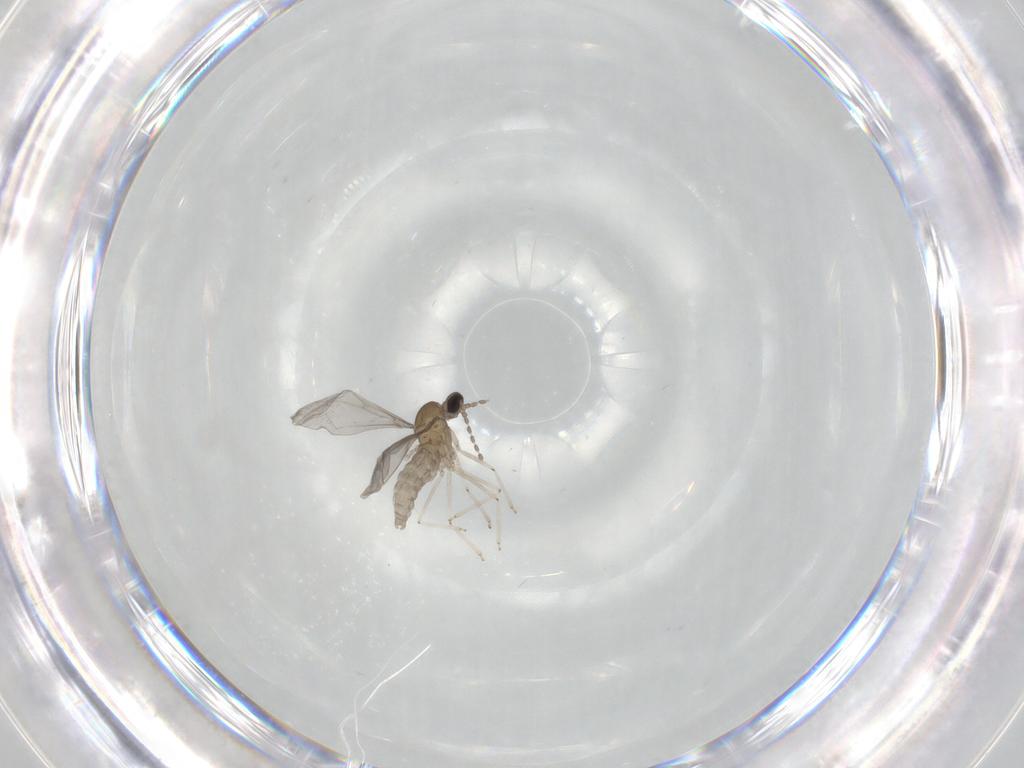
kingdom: Animalia
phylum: Arthropoda
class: Insecta
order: Diptera
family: Cecidomyiidae
